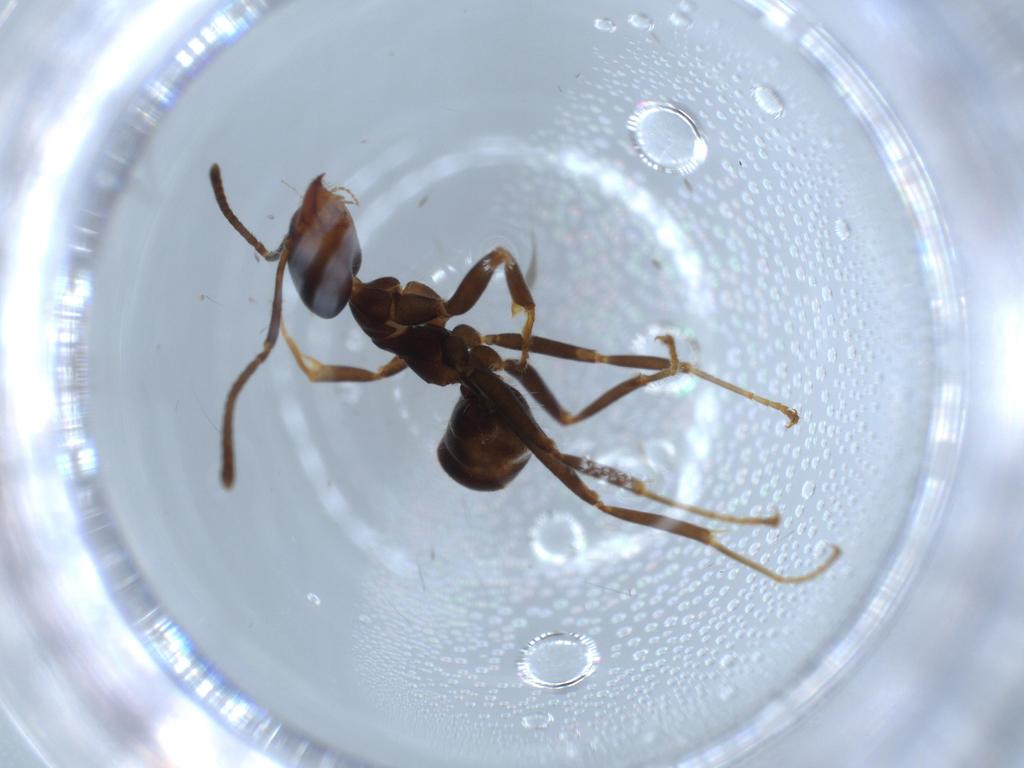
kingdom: Animalia
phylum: Arthropoda
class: Insecta
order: Hymenoptera
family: Formicidae
